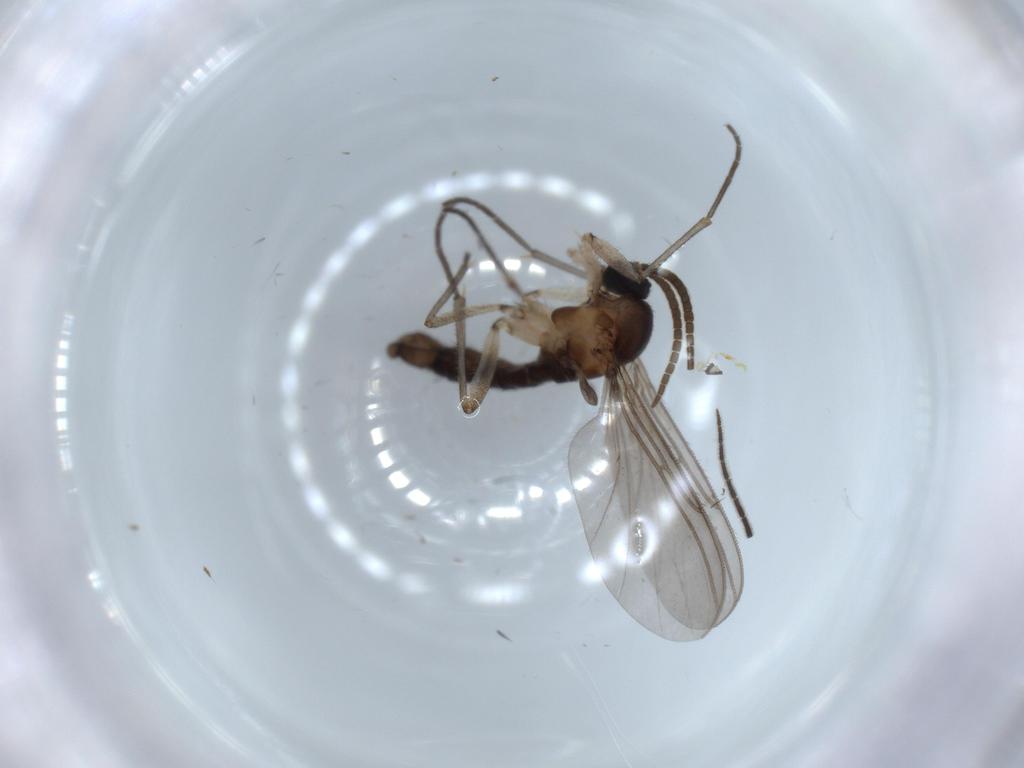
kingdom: Animalia
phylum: Arthropoda
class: Insecta
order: Diptera
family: Sciaridae
